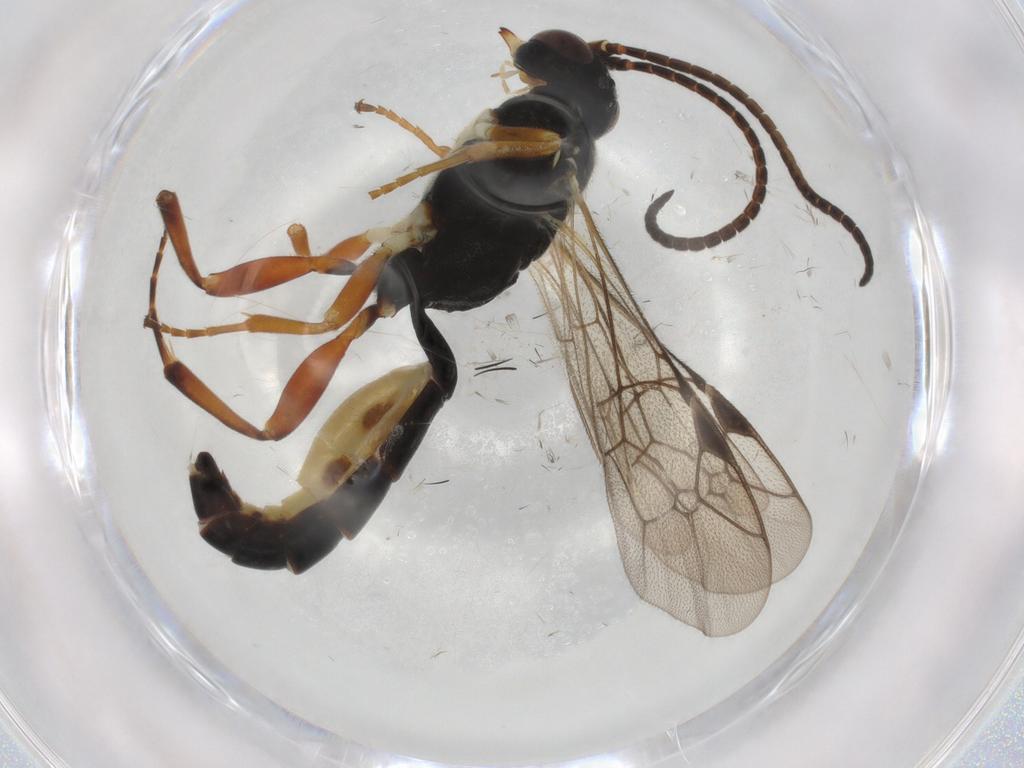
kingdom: Animalia
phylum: Arthropoda
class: Insecta
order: Hymenoptera
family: Ichneumonidae
